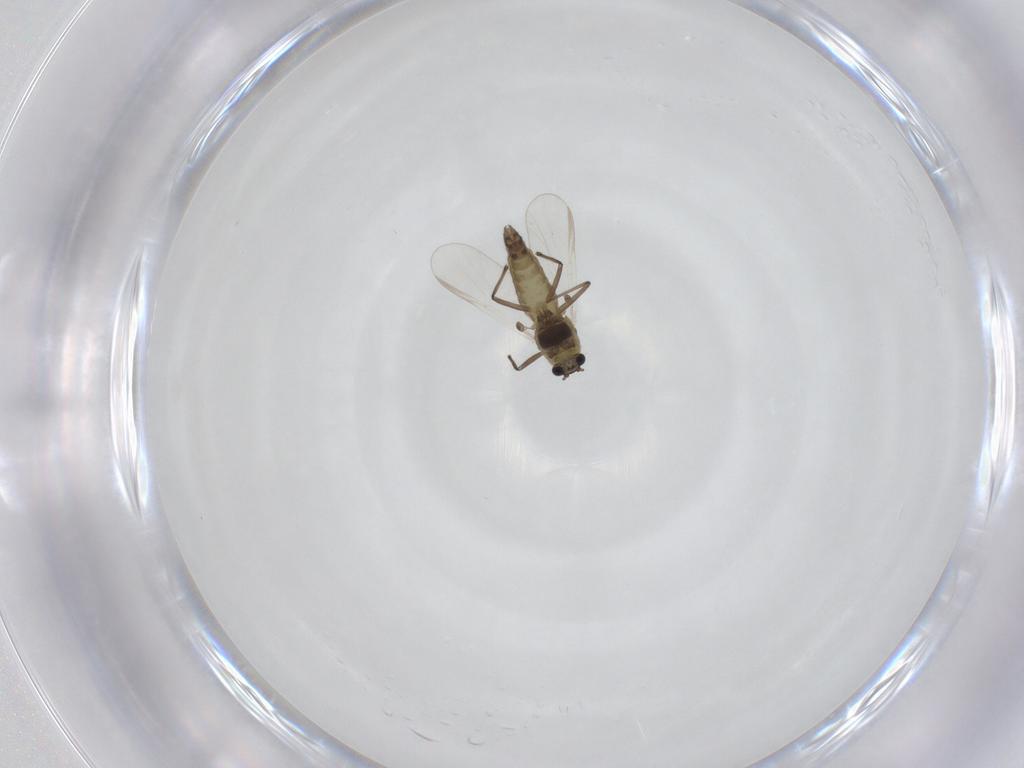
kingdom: Animalia
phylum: Arthropoda
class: Insecta
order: Diptera
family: Chironomidae
